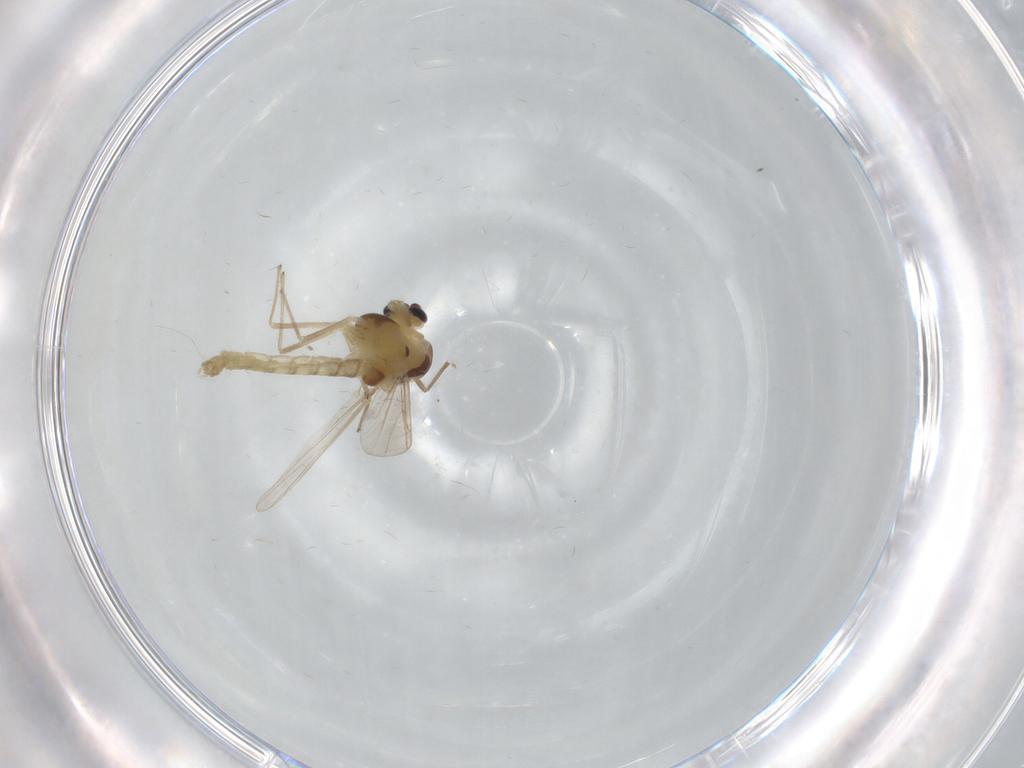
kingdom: Animalia
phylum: Arthropoda
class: Insecta
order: Diptera
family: Chironomidae
